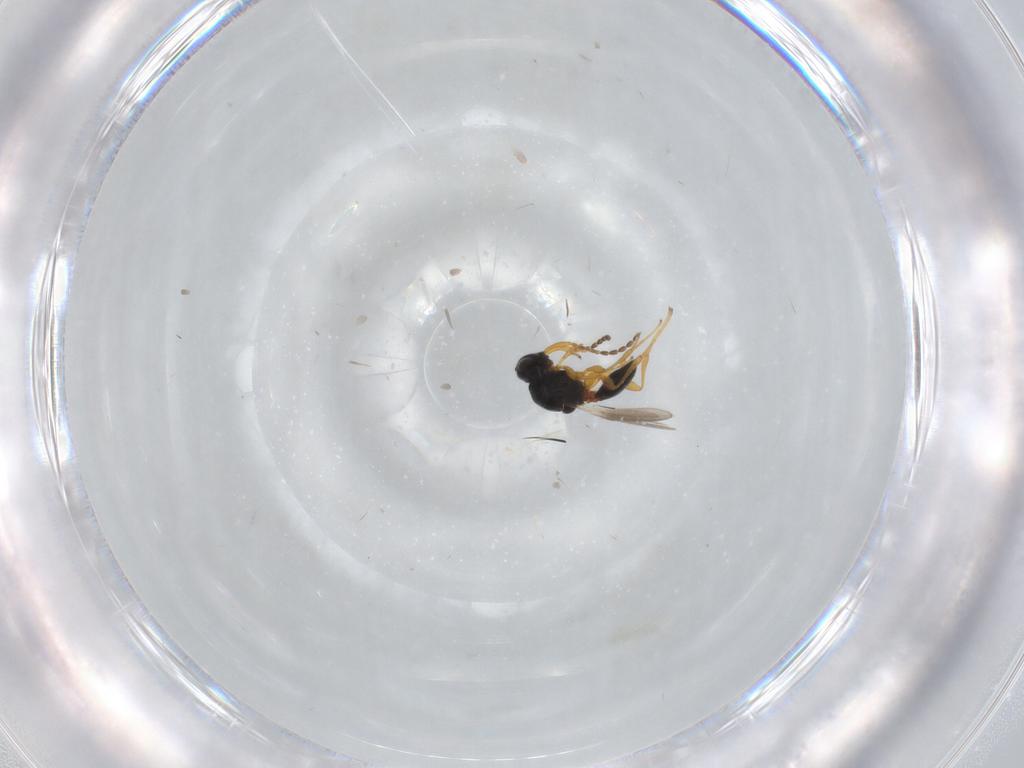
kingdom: Animalia
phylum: Arthropoda
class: Insecta
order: Hymenoptera
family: Platygastridae
